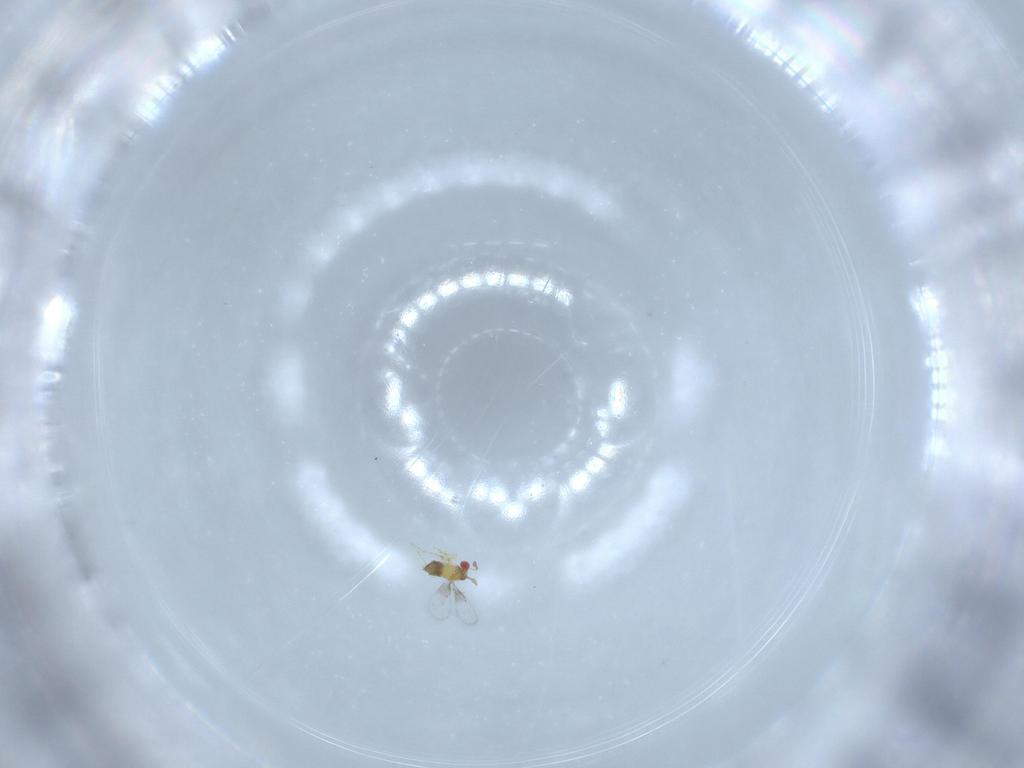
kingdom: Animalia
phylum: Arthropoda
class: Insecta
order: Hymenoptera
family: Trichogrammatidae
